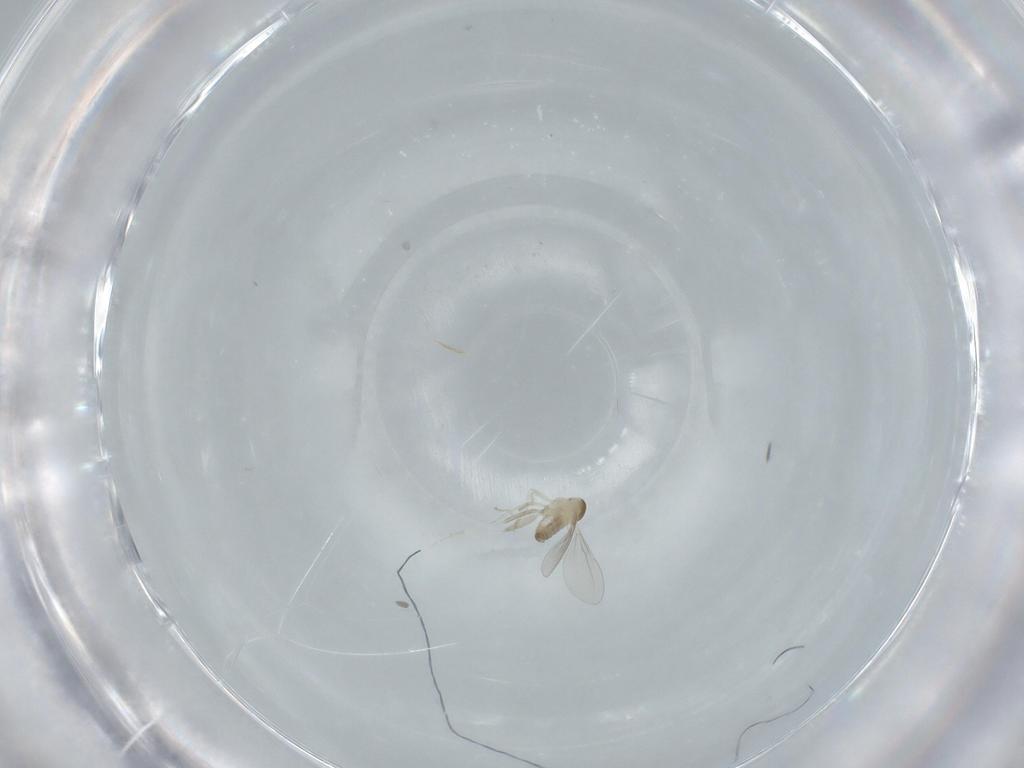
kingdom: Animalia
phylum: Arthropoda
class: Insecta
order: Diptera
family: Cecidomyiidae
